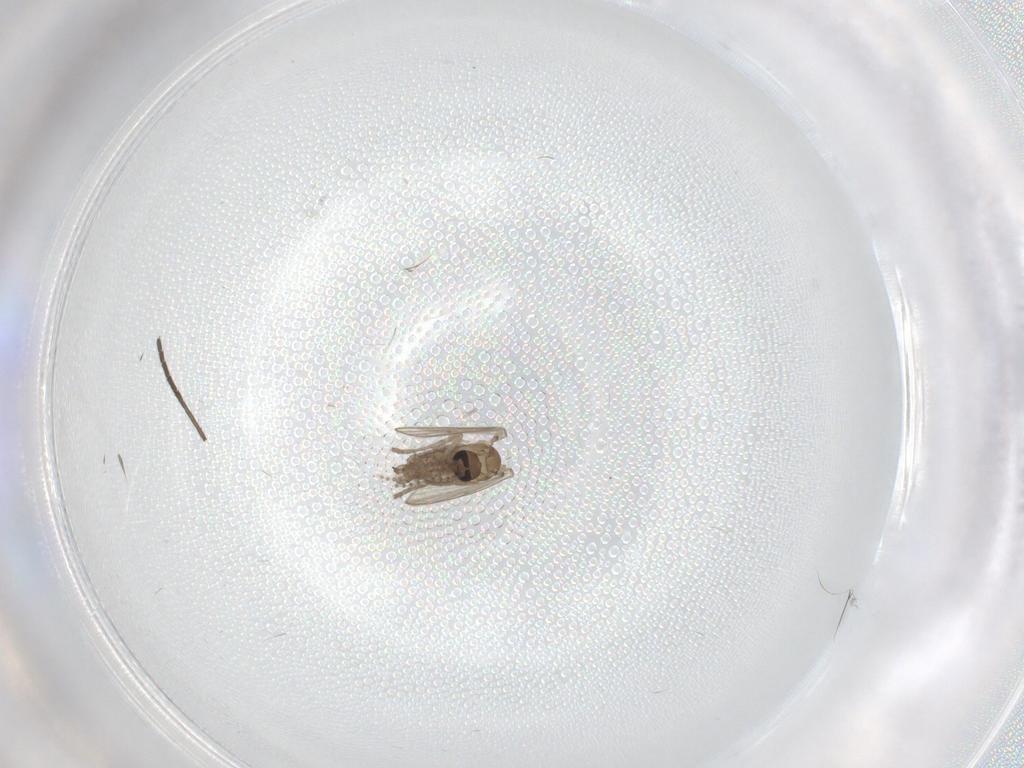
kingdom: Animalia
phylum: Arthropoda
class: Insecta
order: Diptera
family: Psychodidae
